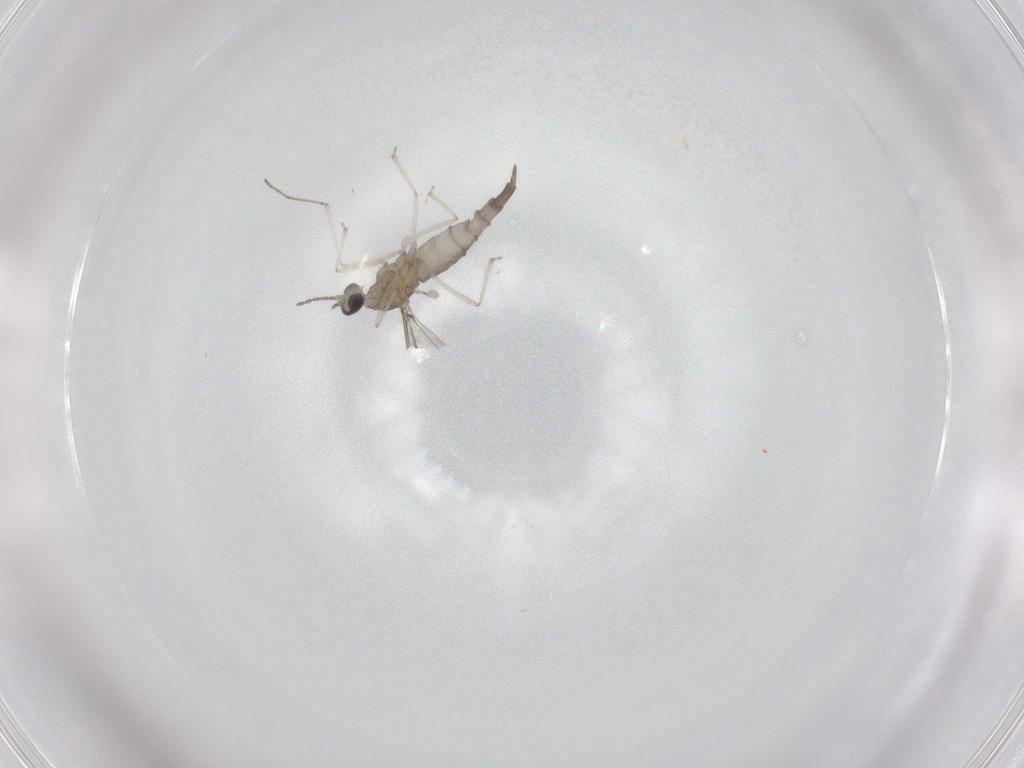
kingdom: Animalia
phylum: Arthropoda
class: Insecta
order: Diptera
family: Cecidomyiidae
